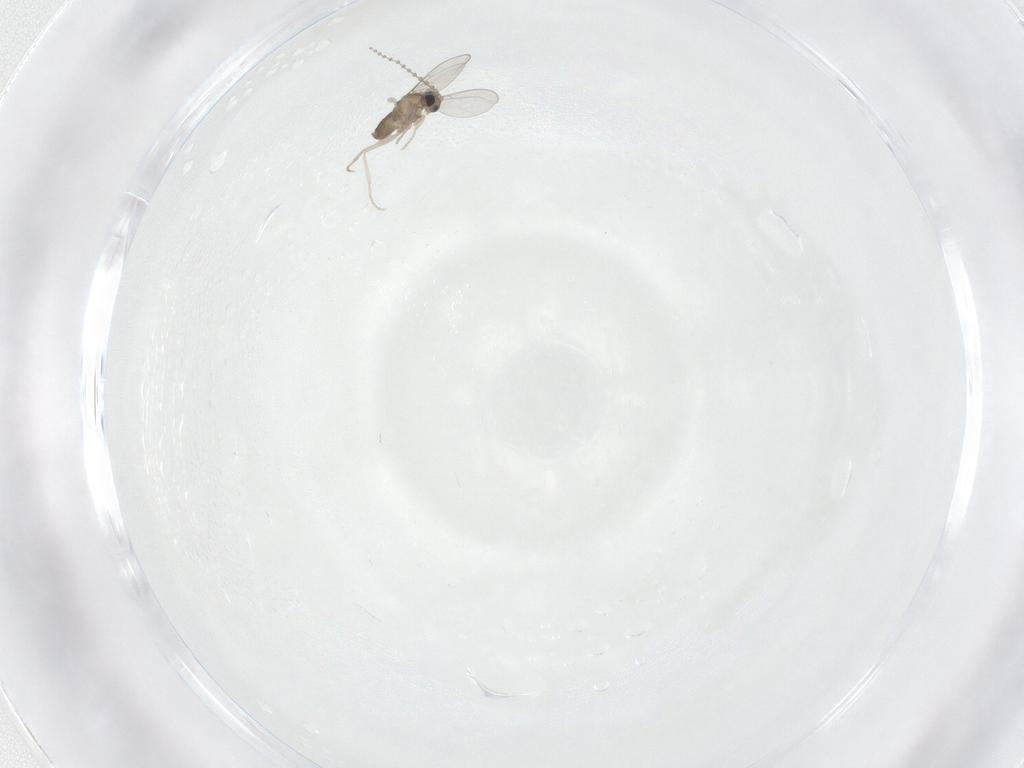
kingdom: Animalia
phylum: Arthropoda
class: Insecta
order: Diptera
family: Cecidomyiidae
